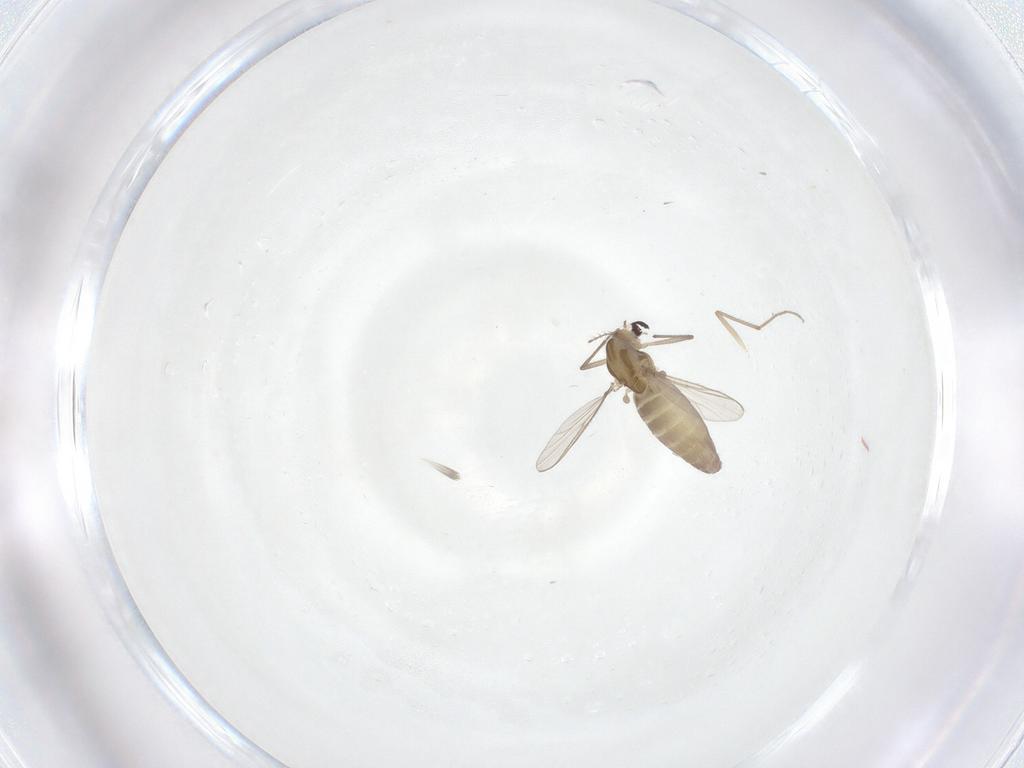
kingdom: Animalia
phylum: Arthropoda
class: Insecta
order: Diptera
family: Chironomidae
